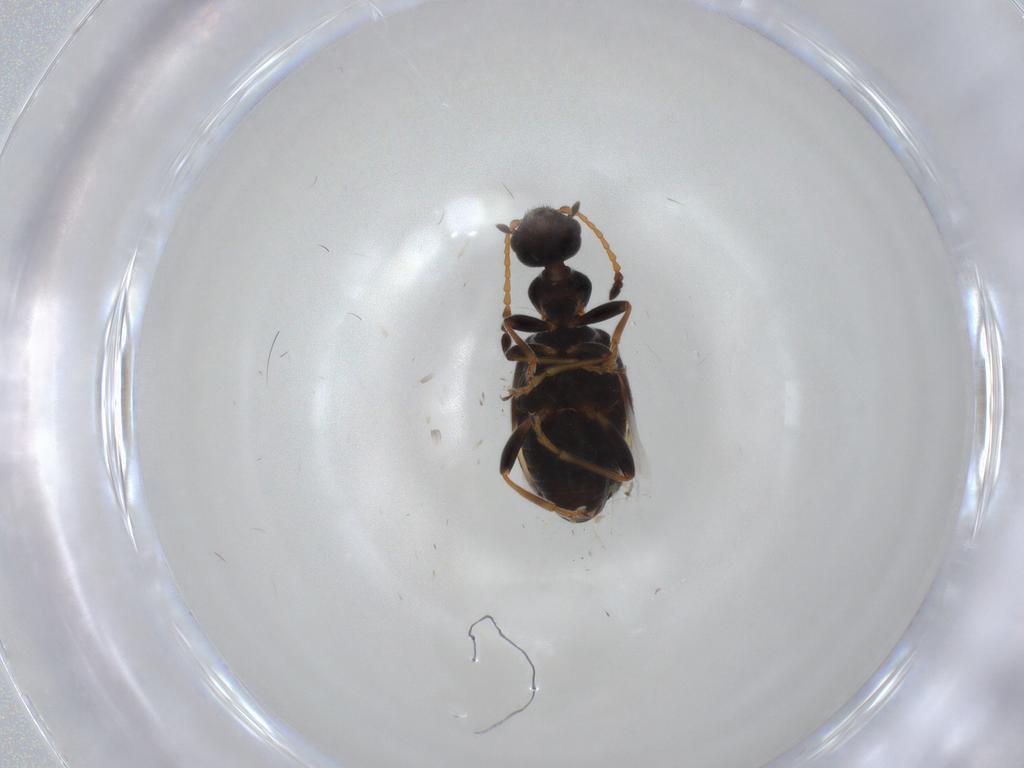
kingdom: Animalia
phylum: Arthropoda
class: Insecta
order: Coleoptera
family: Anthicidae
